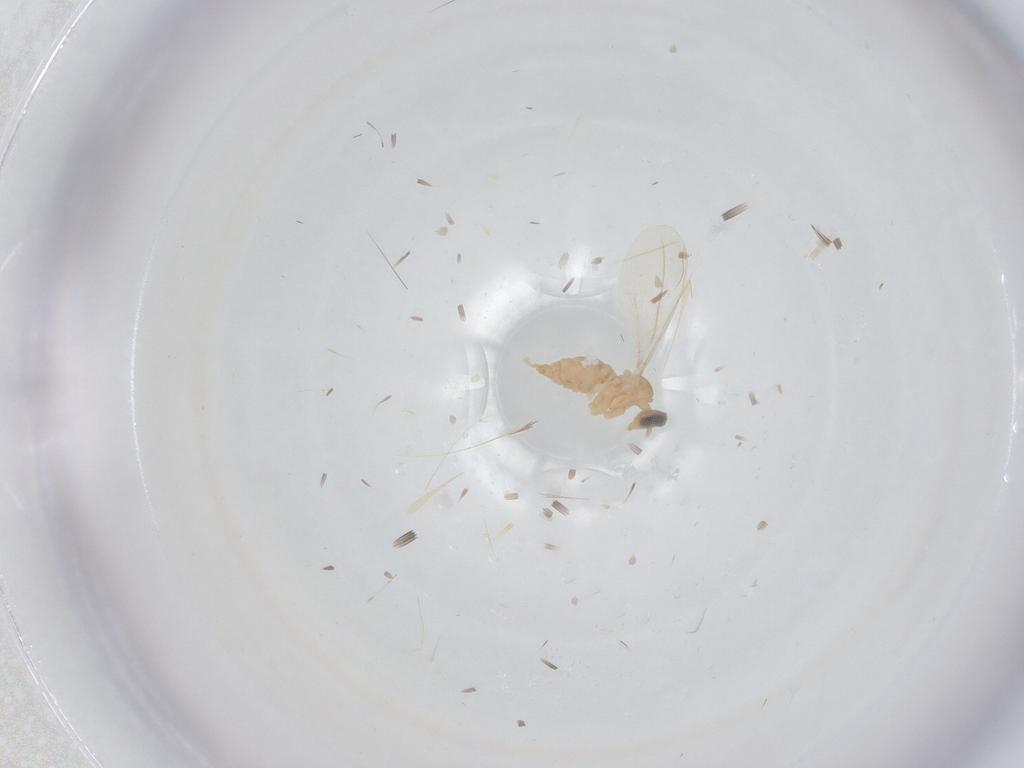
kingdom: Animalia
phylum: Arthropoda
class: Insecta
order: Diptera
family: Cecidomyiidae
